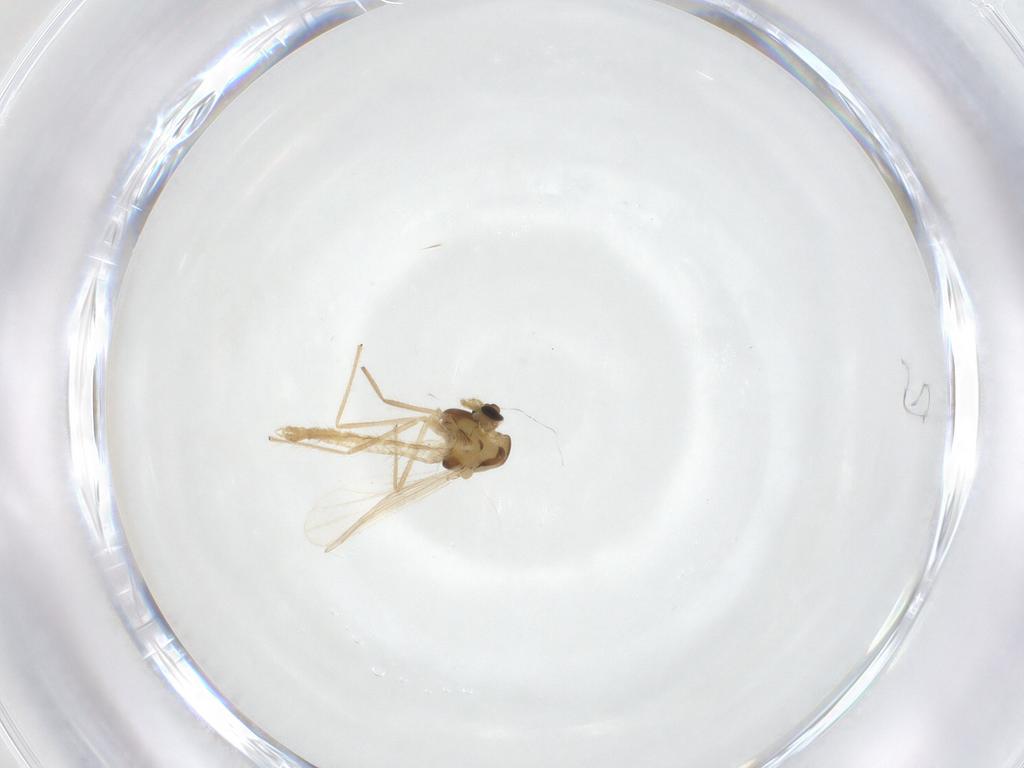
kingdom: Animalia
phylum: Arthropoda
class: Insecta
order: Diptera
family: Chironomidae
